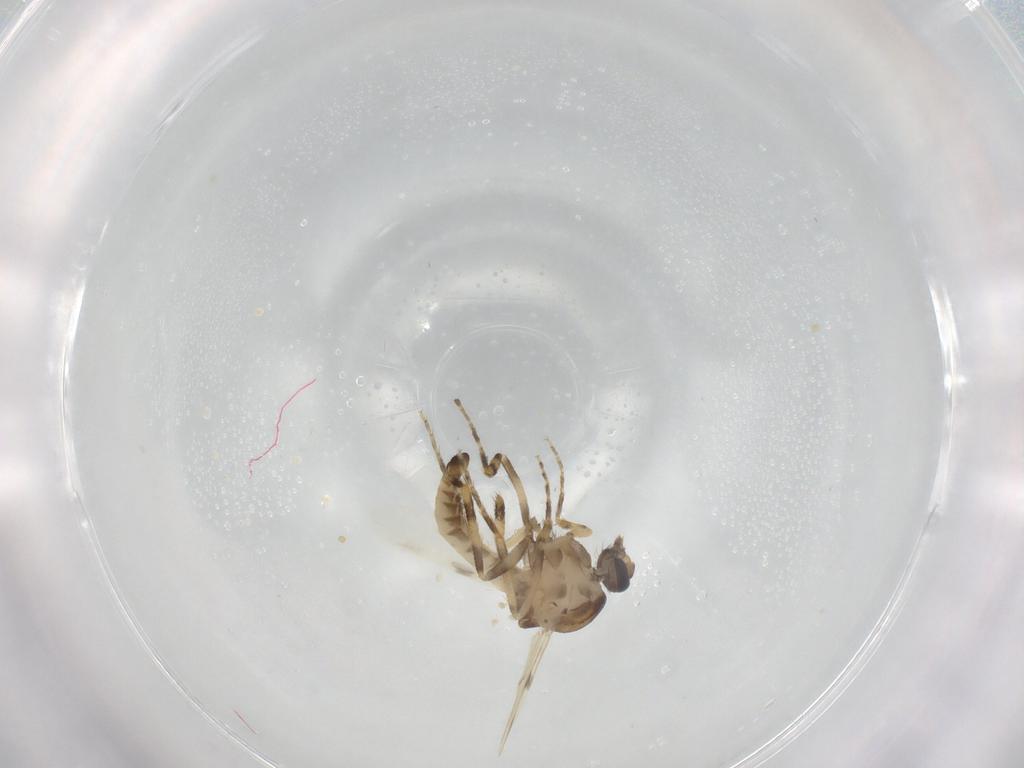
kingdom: Animalia
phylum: Arthropoda
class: Insecta
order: Diptera
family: Ceratopogonidae
